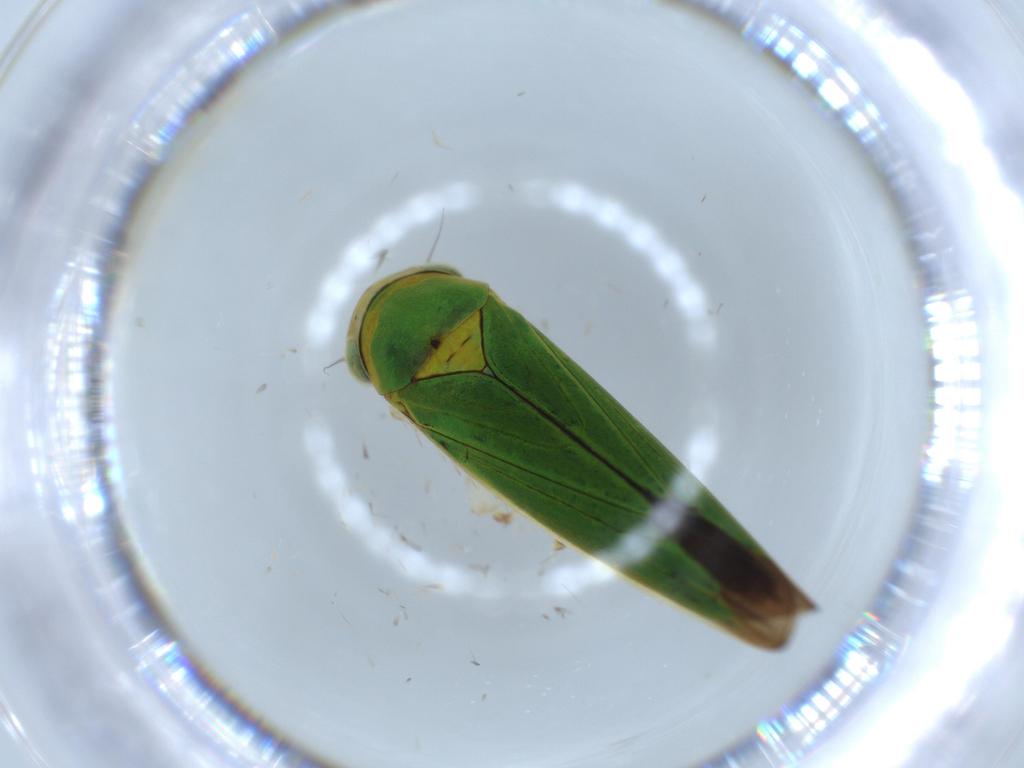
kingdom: Animalia
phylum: Arthropoda
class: Insecta
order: Hemiptera
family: Cicadellidae
